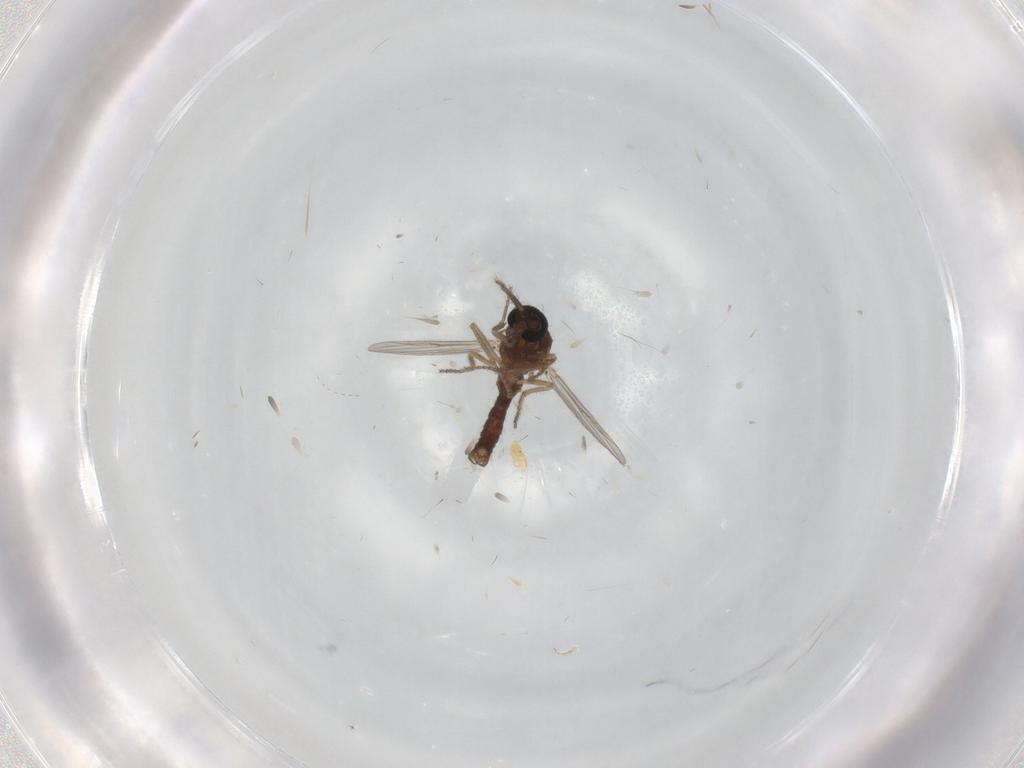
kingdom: Animalia
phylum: Arthropoda
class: Insecta
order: Diptera
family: Ceratopogonidae
